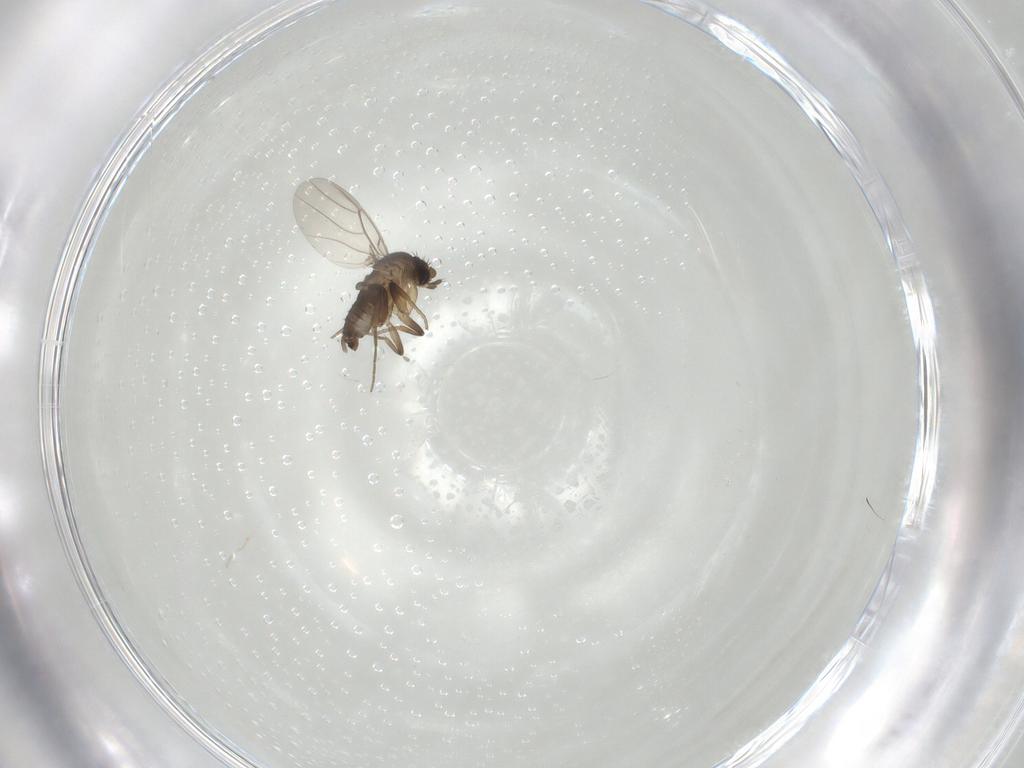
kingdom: Animalia
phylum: Arthropoda
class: Insecta
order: Diptera
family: Phoridae
